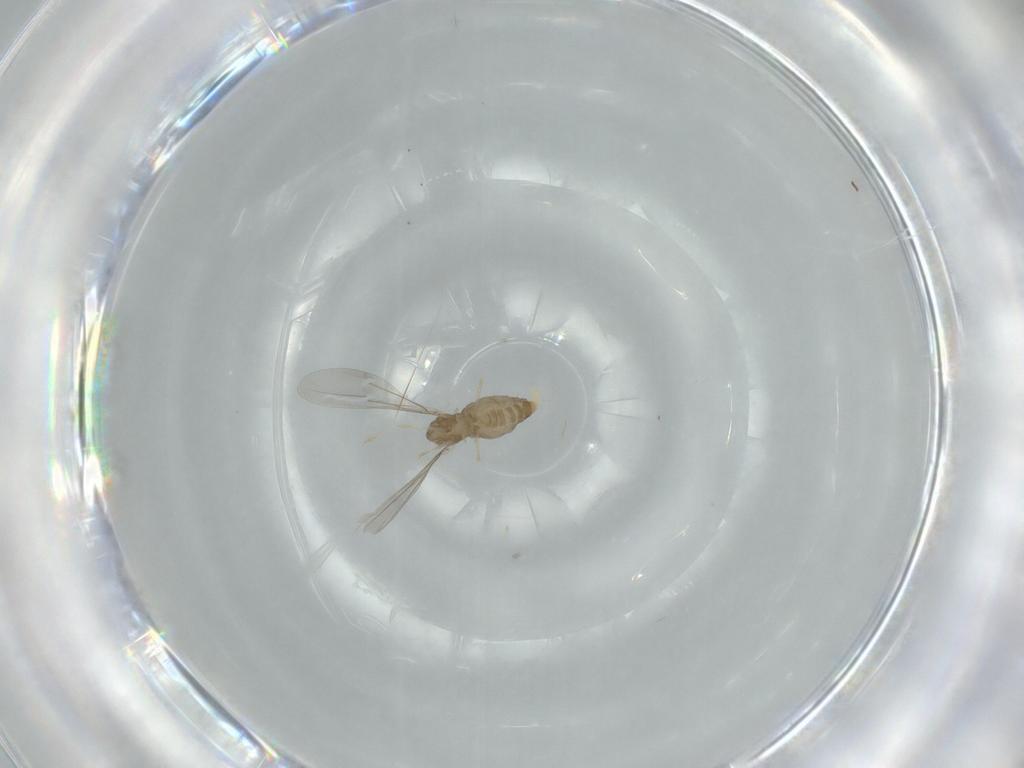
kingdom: Animalia
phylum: Arthropoda
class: Insecta
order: Diptera
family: Cecidomyiidae
